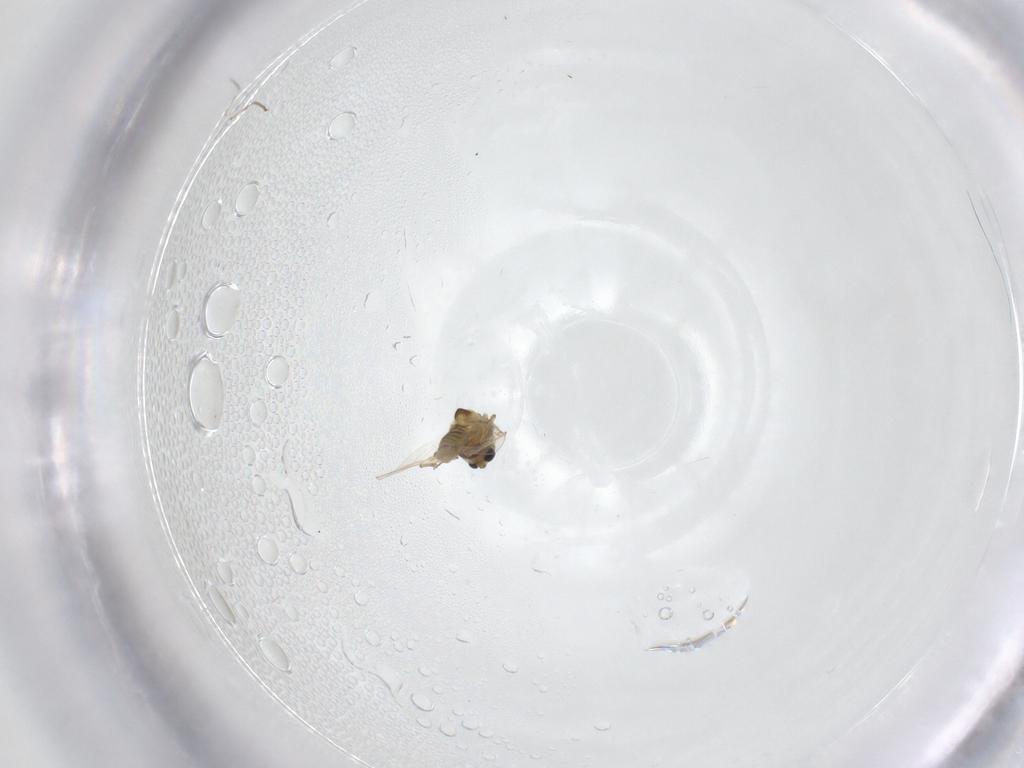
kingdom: Animalia
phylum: Arthropoda
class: Insecta
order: Diptera
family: Chironomidae
